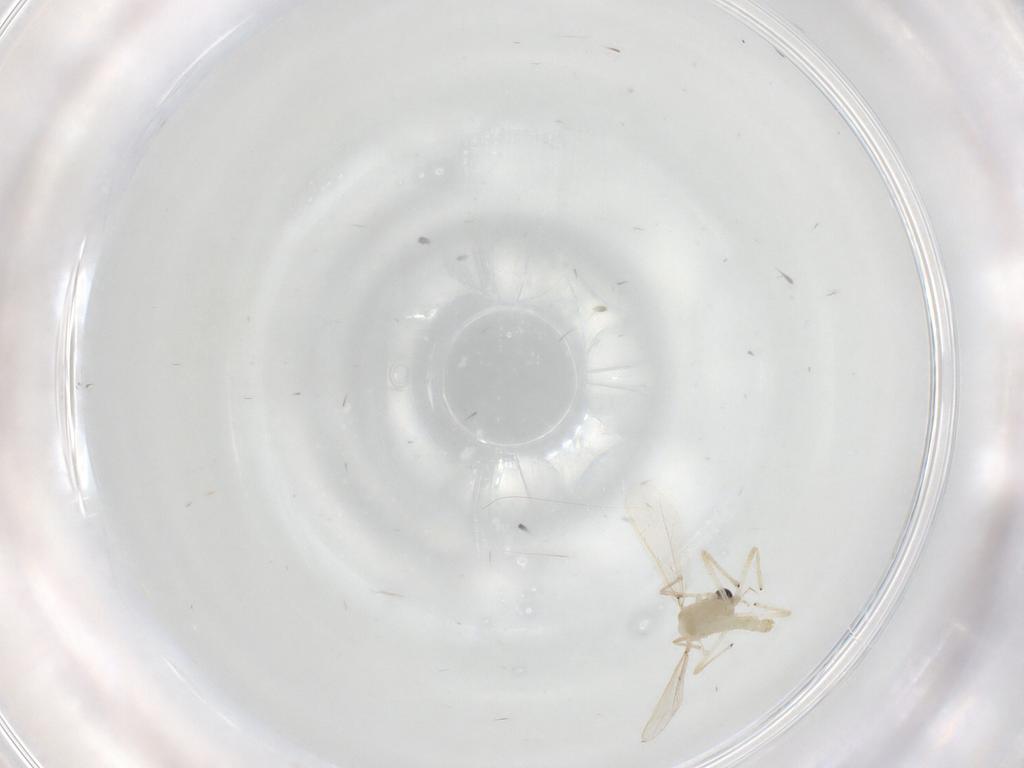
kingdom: Animalia
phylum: Arthropoda
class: Insecta
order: Diptera
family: Chironomidae
